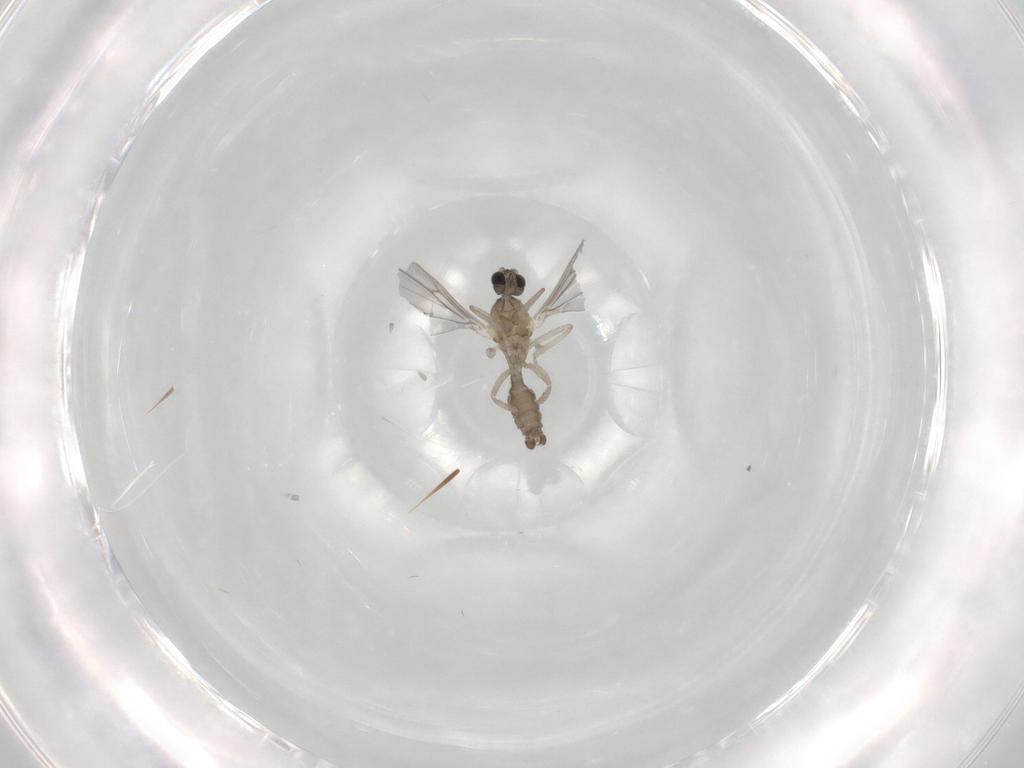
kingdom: Animalia
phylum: Arthropoda
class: Insecta
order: Diptera
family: Cecidomyiidae
